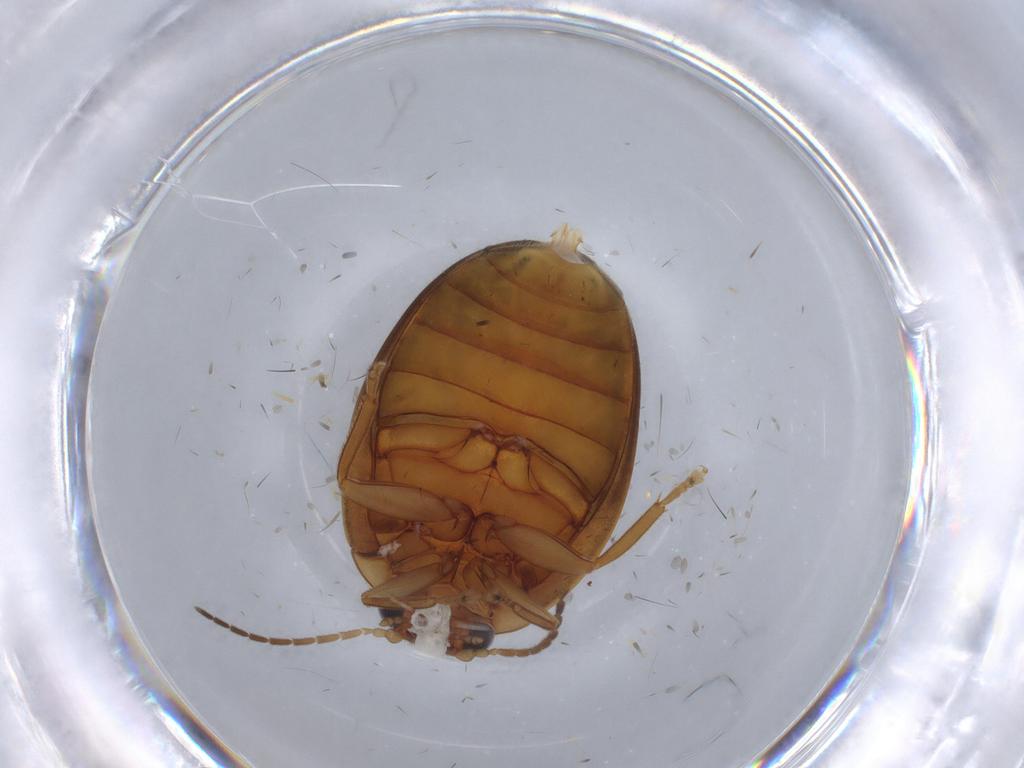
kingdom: Animalia
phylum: Arthropoda
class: Insecta
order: Coleoptera
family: Scirtidae
